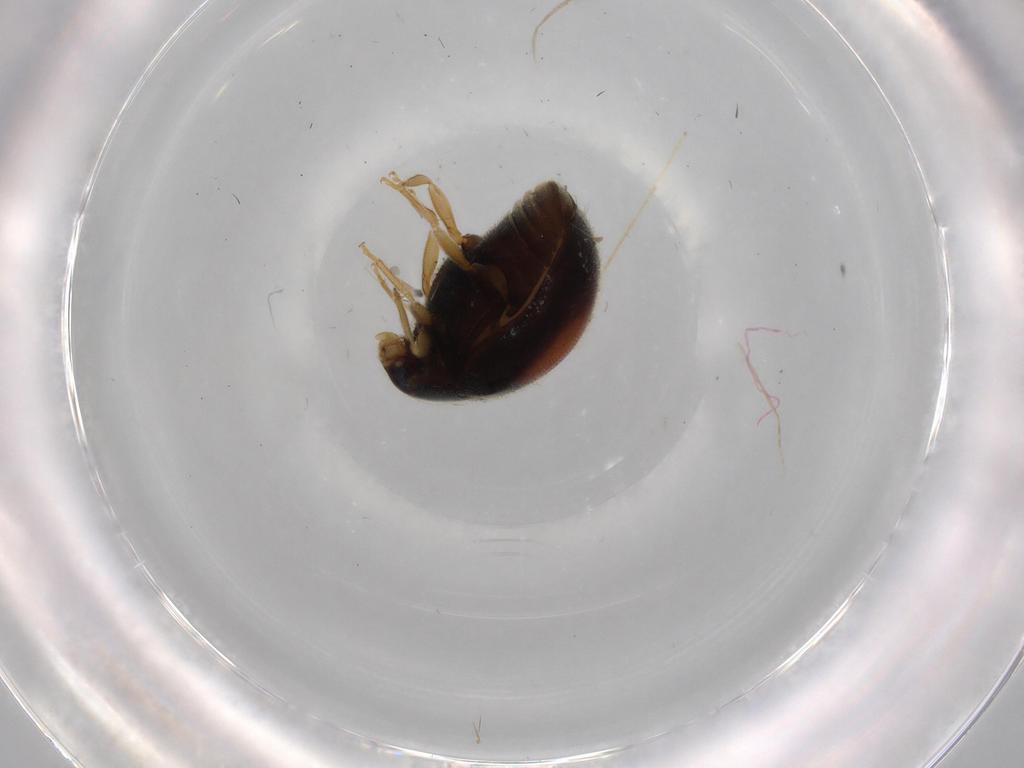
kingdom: Animalia
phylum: Arthropoda
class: Insecta
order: Coleoptera
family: Coccinellidae
